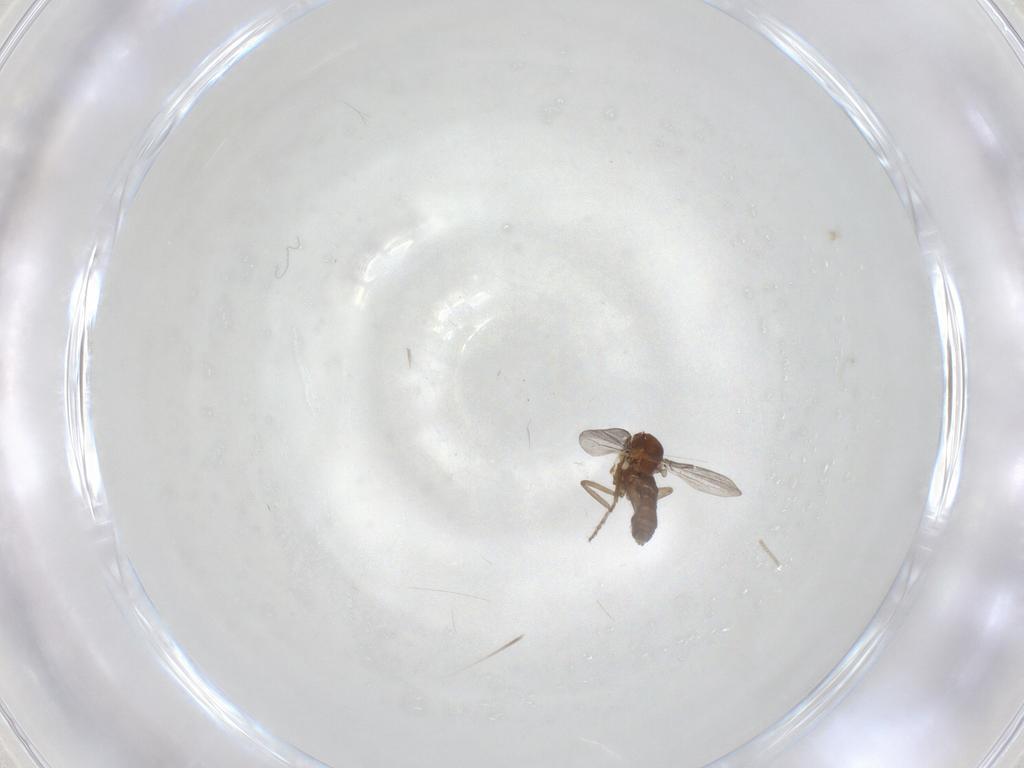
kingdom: Animalia
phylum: Arthropoda
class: Insecta
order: Diptera
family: Ceratopogonidae
